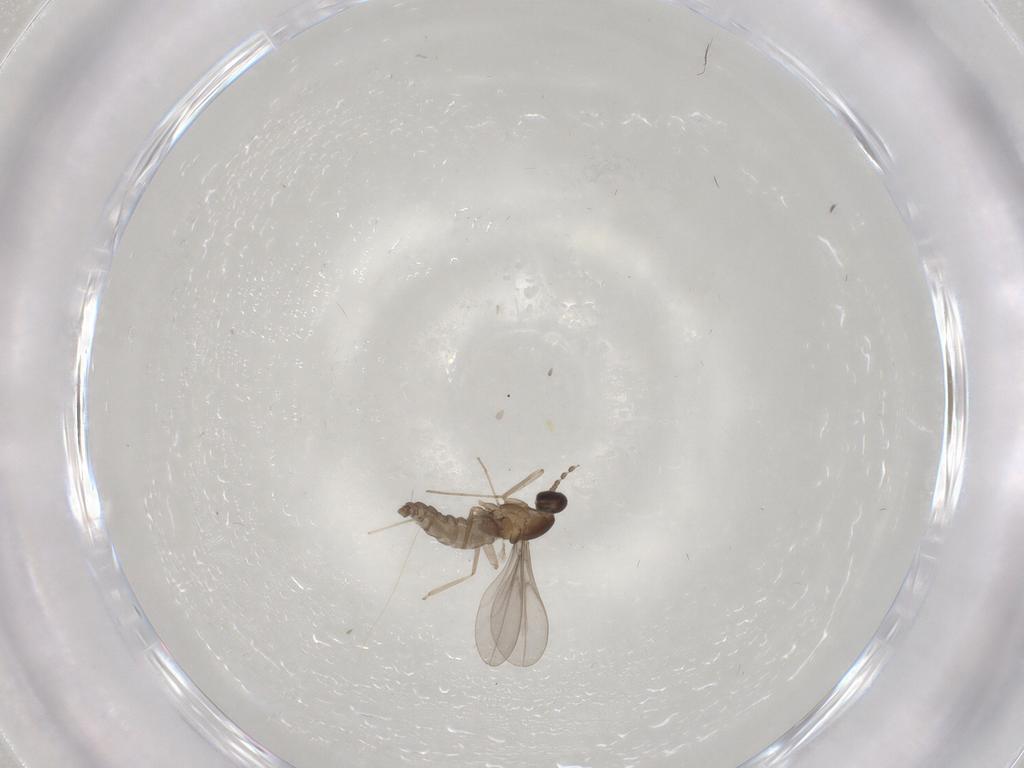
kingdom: Animalia
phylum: Arthropoda
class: Insecta
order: Diptera
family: Cecidomyiidae
